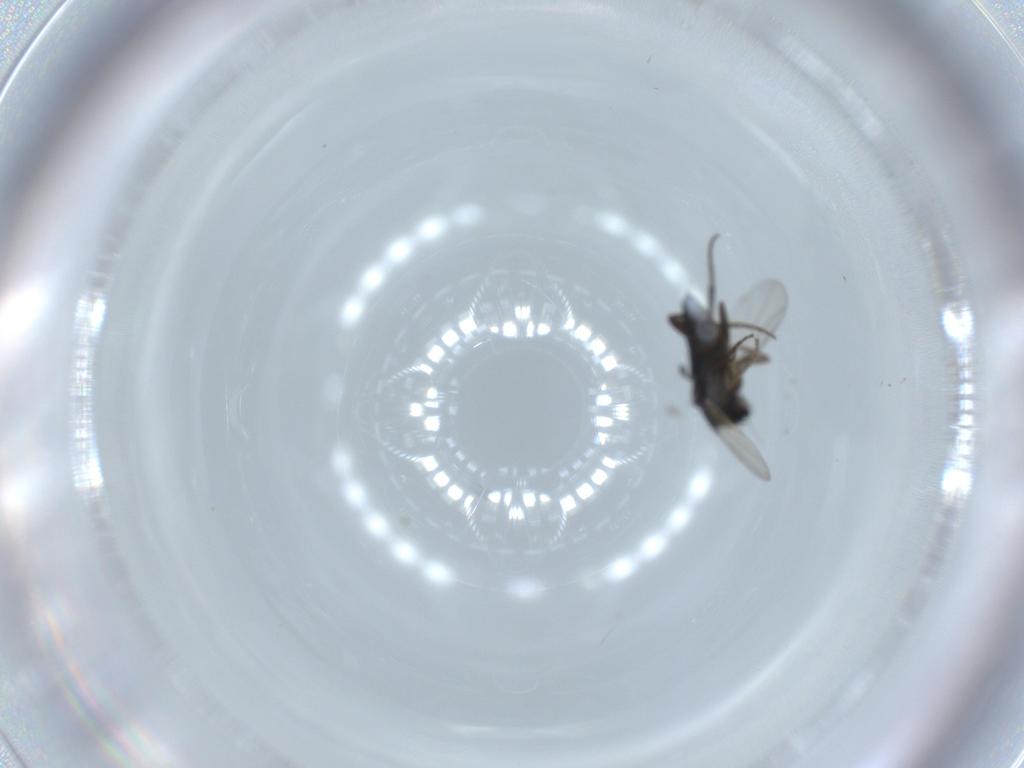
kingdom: Animalia
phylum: Arthropoda
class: Insecta
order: Diptera
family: Phoridae
